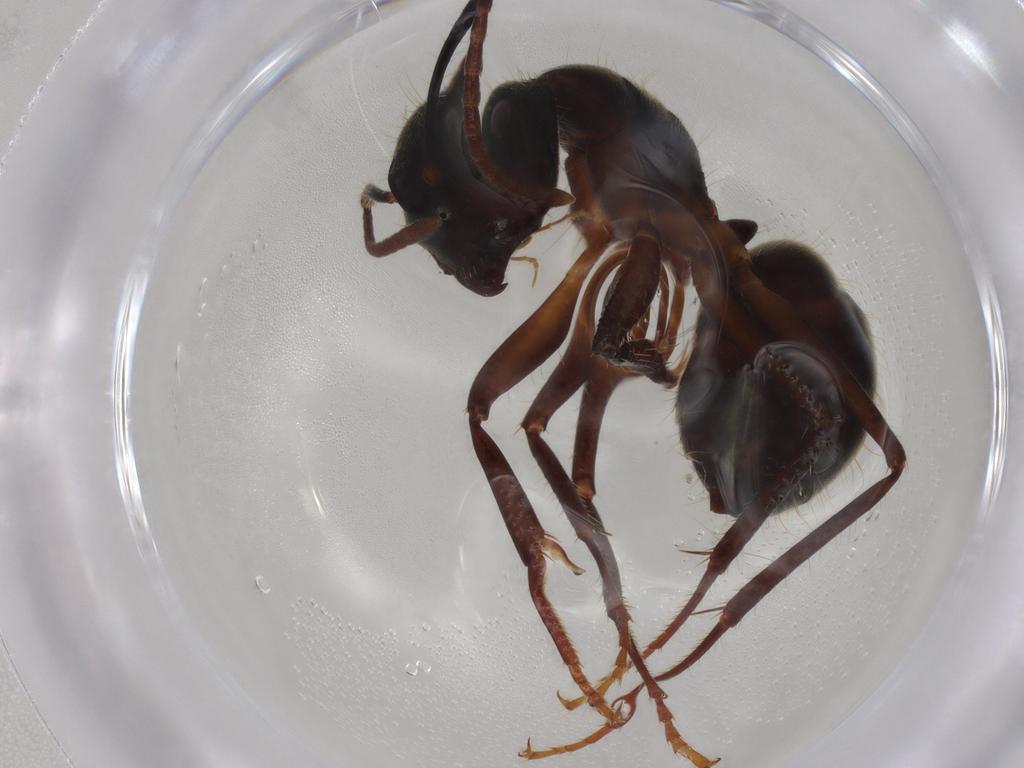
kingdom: Animalia
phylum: Arthropoda
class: Insecta
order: Hymenoptera
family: Formicidae
